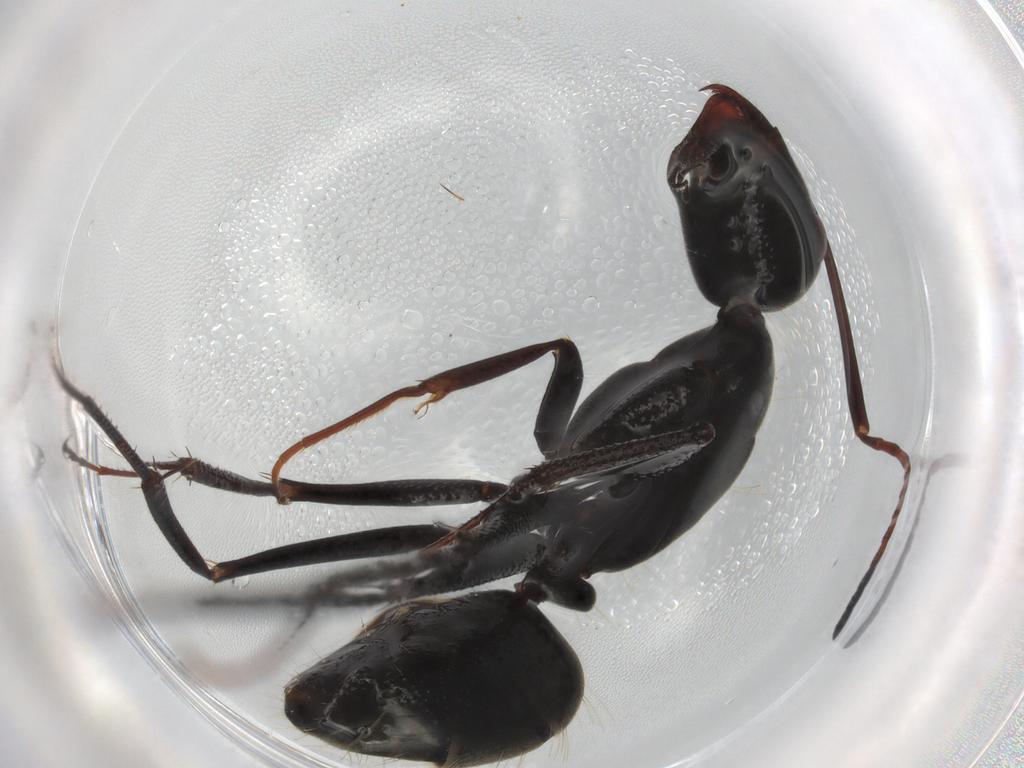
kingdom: Animalia
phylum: Arthropoda
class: Insecta
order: Hymenoptera
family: Formicidae
